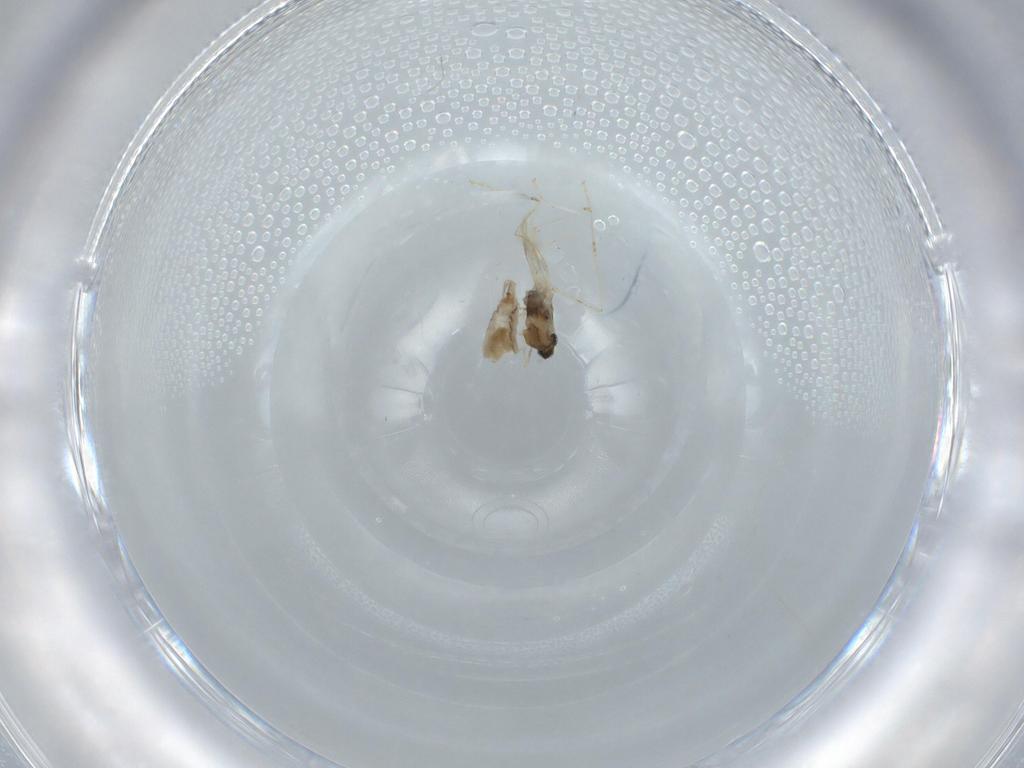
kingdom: Animalia
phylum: Arthropoda
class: Insecta
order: Diptera
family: Cecidomyiidae
